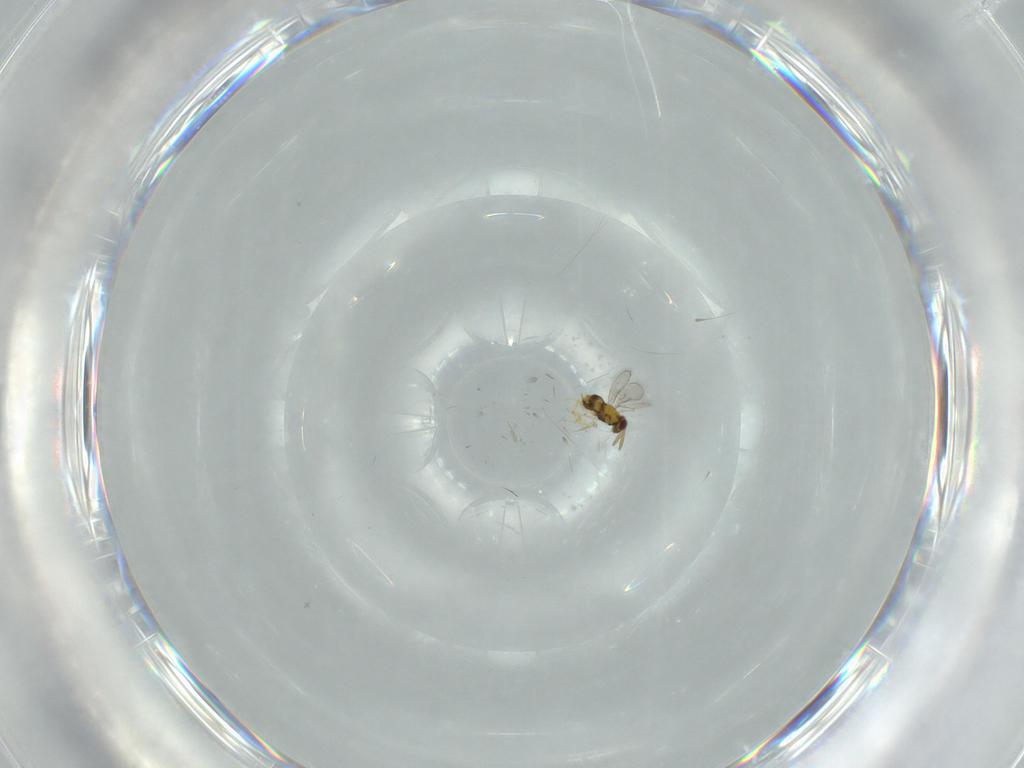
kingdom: Animalia
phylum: Arthropoda
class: Insecta
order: Hymenoptera
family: Aphelinidae
